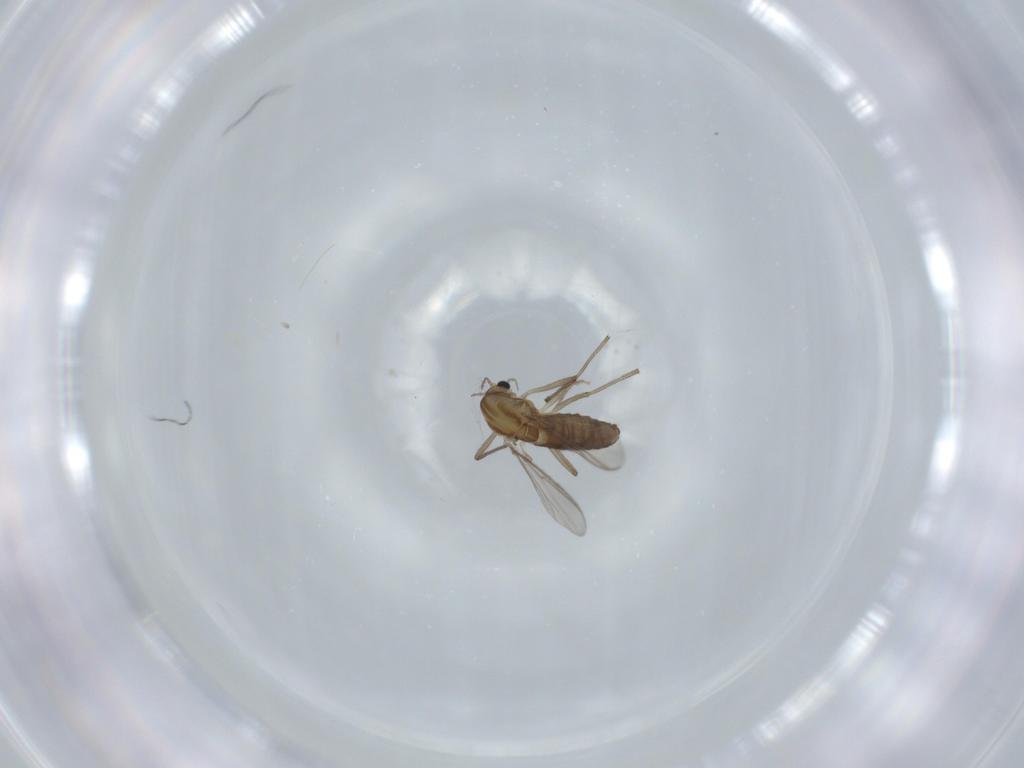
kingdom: Animalia
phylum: Arthropoda
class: Insecta
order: Diptera
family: Chironomidae
